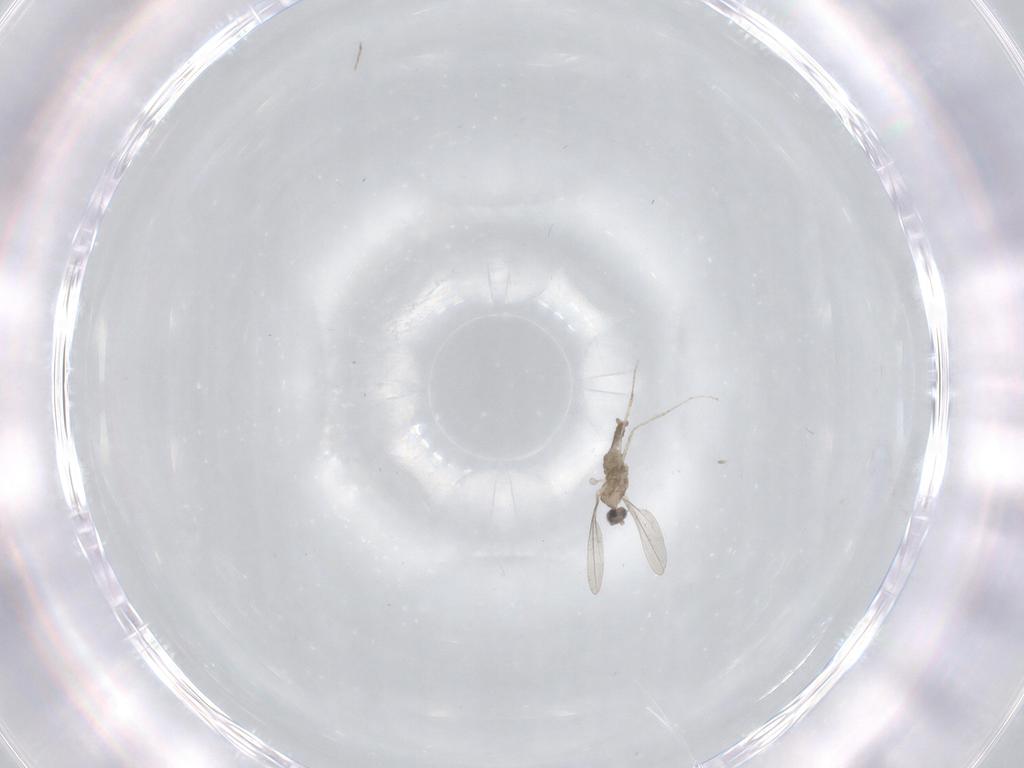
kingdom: Animalia
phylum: Arthropoda
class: Insecta
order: Diptera
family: Cecidomyiidae
